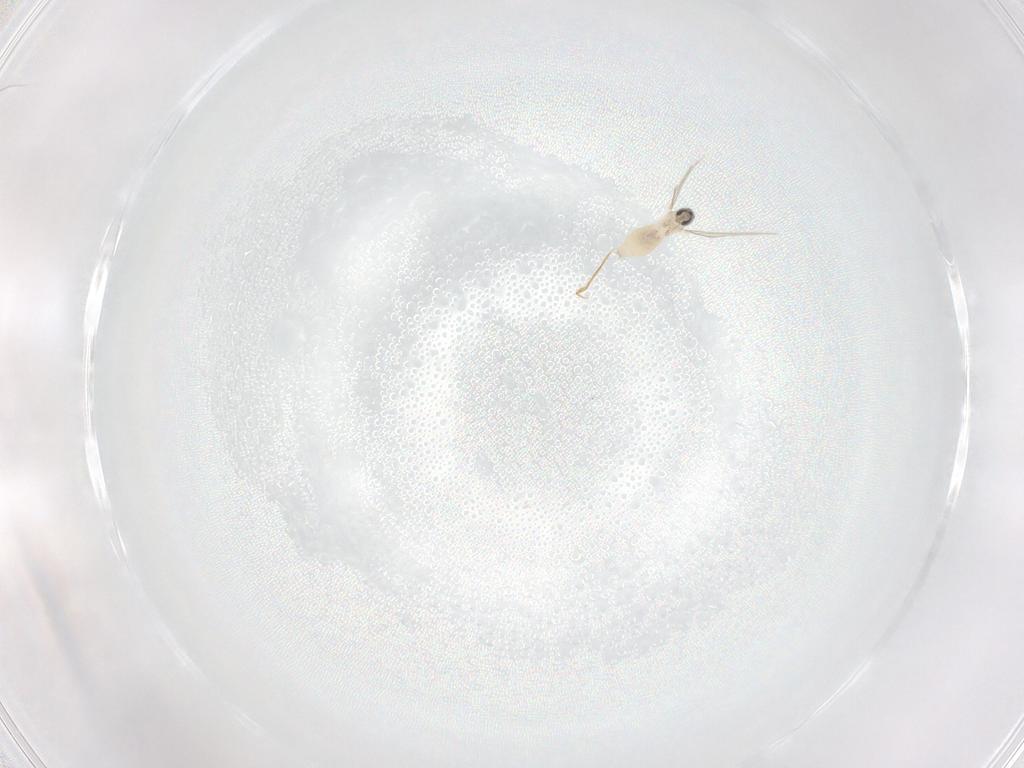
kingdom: Animalia
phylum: Arthropoda
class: Insecta
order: Diptera
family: Cecidomyiidae
